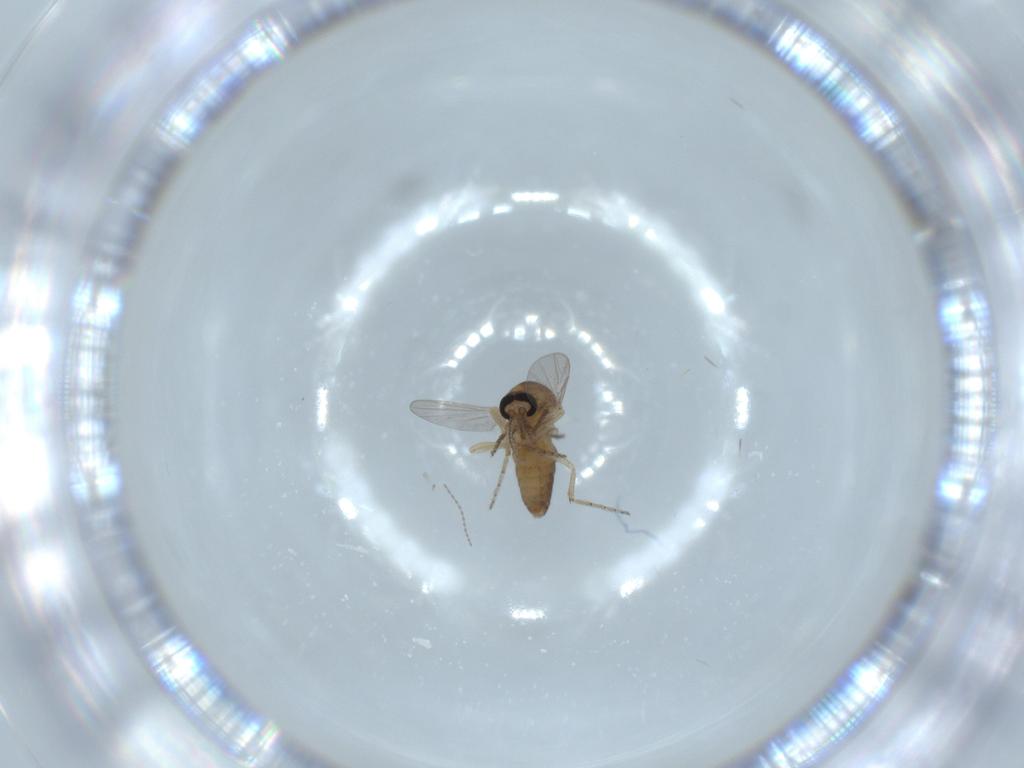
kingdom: Animalia
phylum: Arthropoda
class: Insecta
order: Diptera
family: Ceratopogonidae
